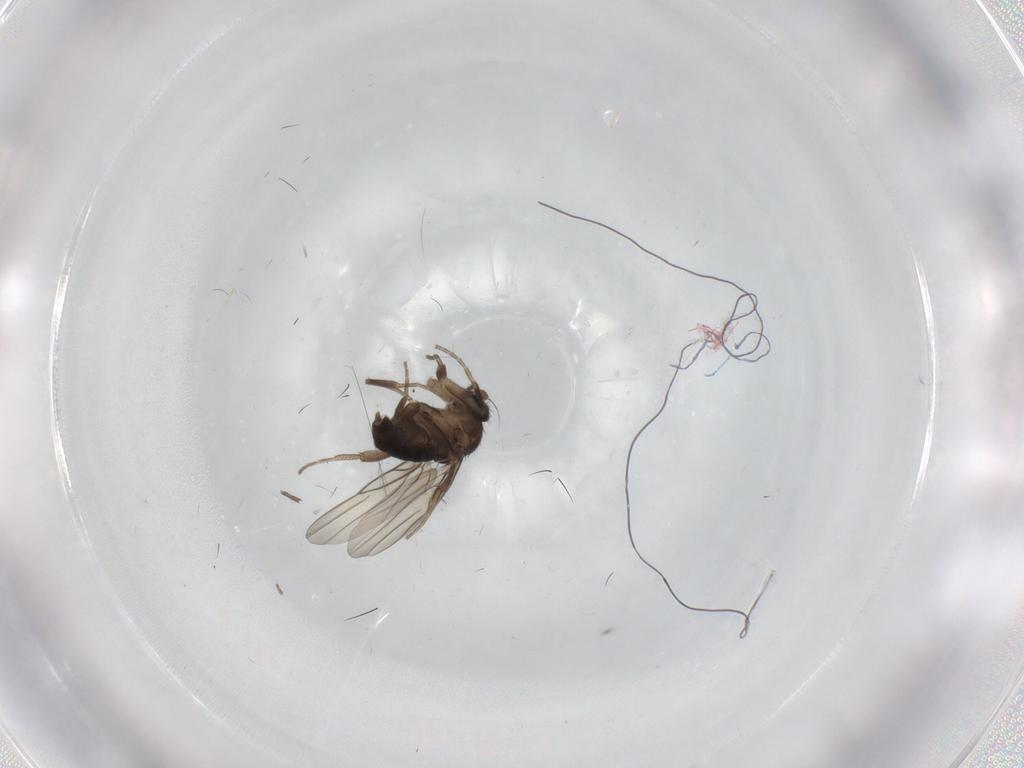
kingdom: Animalia
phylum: Arthropoda
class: Insecta
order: Diptera
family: Phoridae
